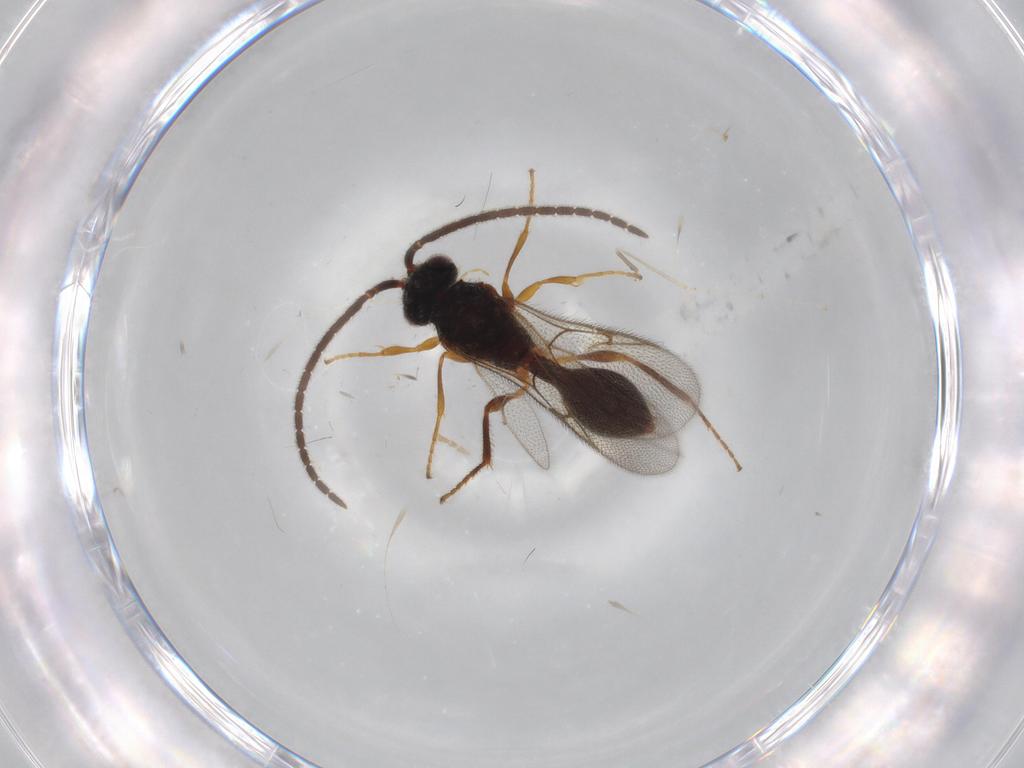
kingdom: Animalia
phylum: Arthropoda
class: Insecta
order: Hymenoptera
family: Diapriidae
